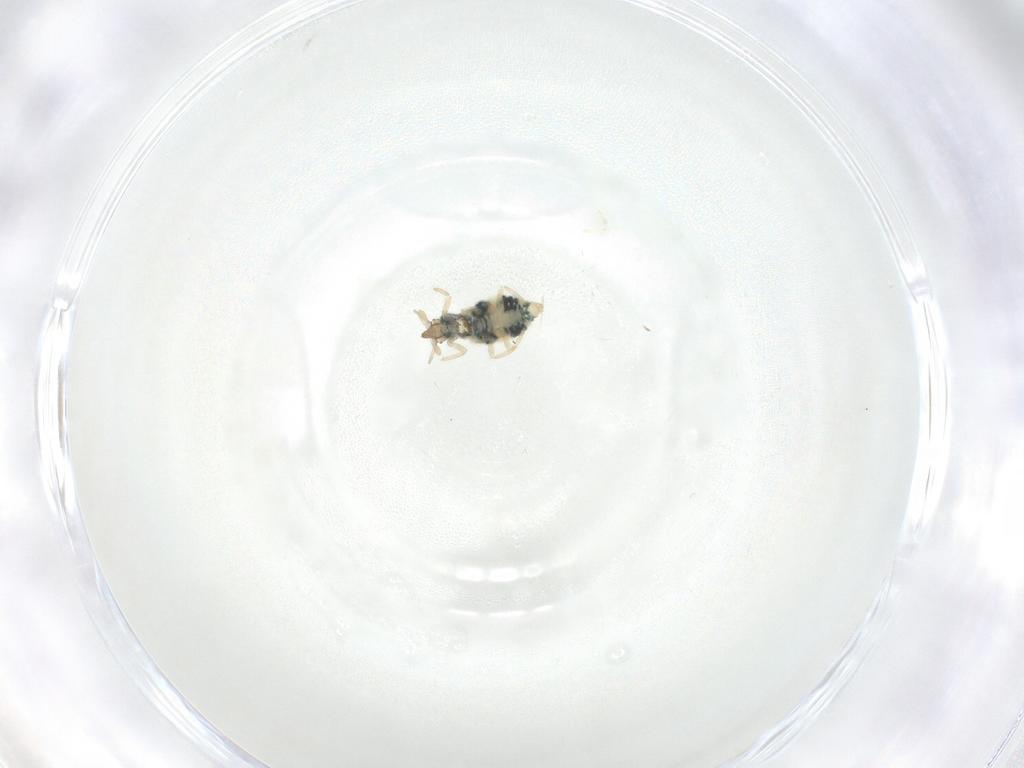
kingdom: Animalia
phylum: Arthropoda
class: Insecta
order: Neuroptera
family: Coniopterygidae
